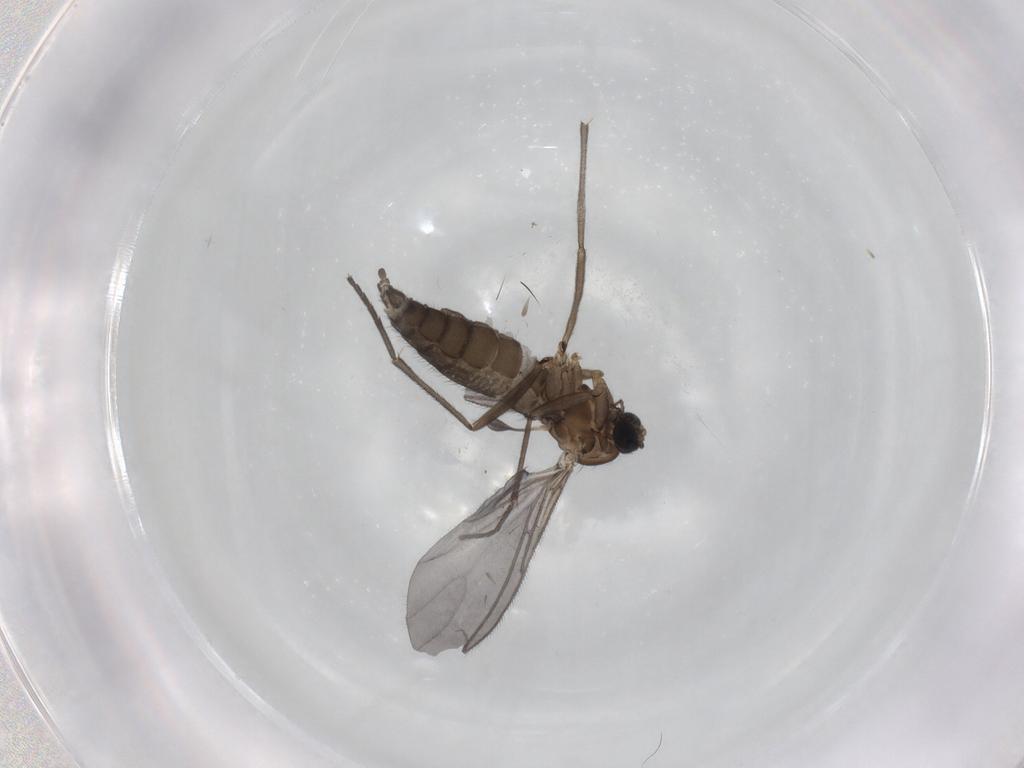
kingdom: Animalia
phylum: Arthropoda
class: Insecta
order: Diptera
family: Sciaridae
